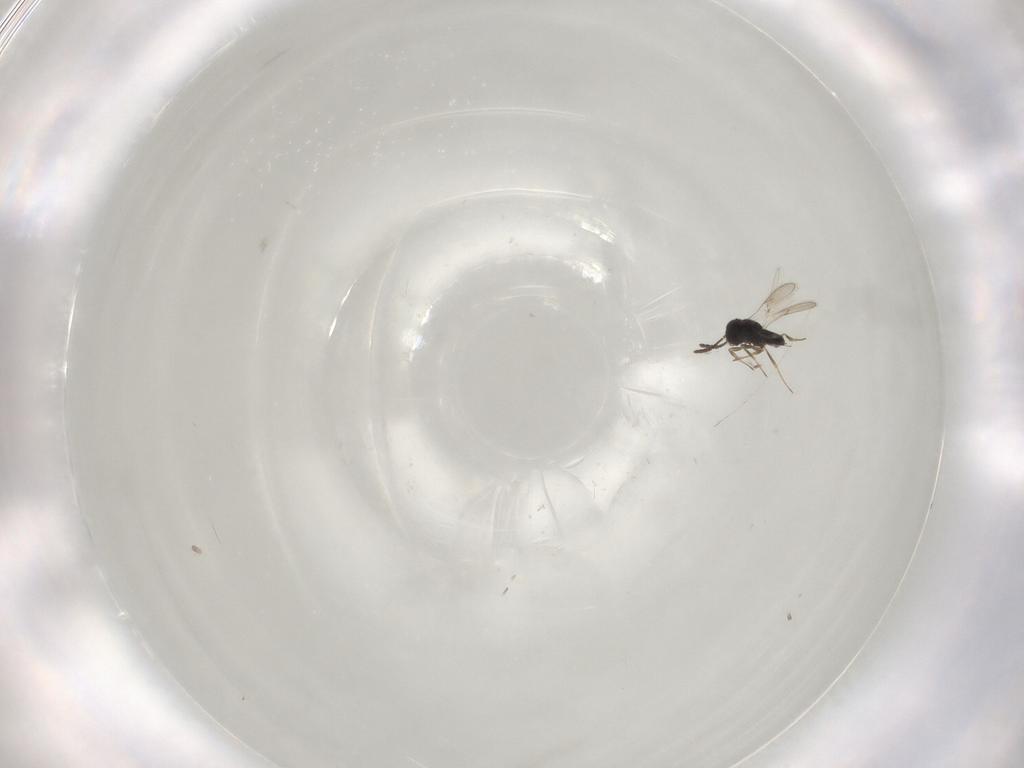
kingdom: Animalia
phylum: Arthropoda
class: Insecta
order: Hymenoptera
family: Scelionidae
